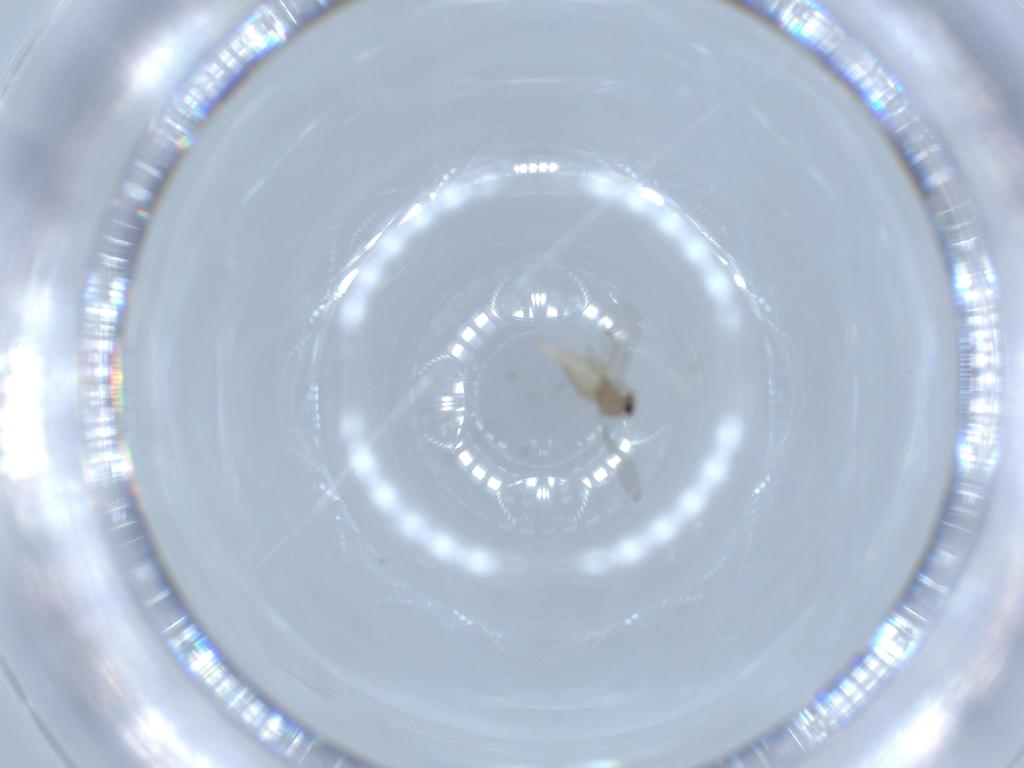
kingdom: Animalia
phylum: Arthropoda
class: Insecta
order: Diptera
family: Cecidomyiidae
